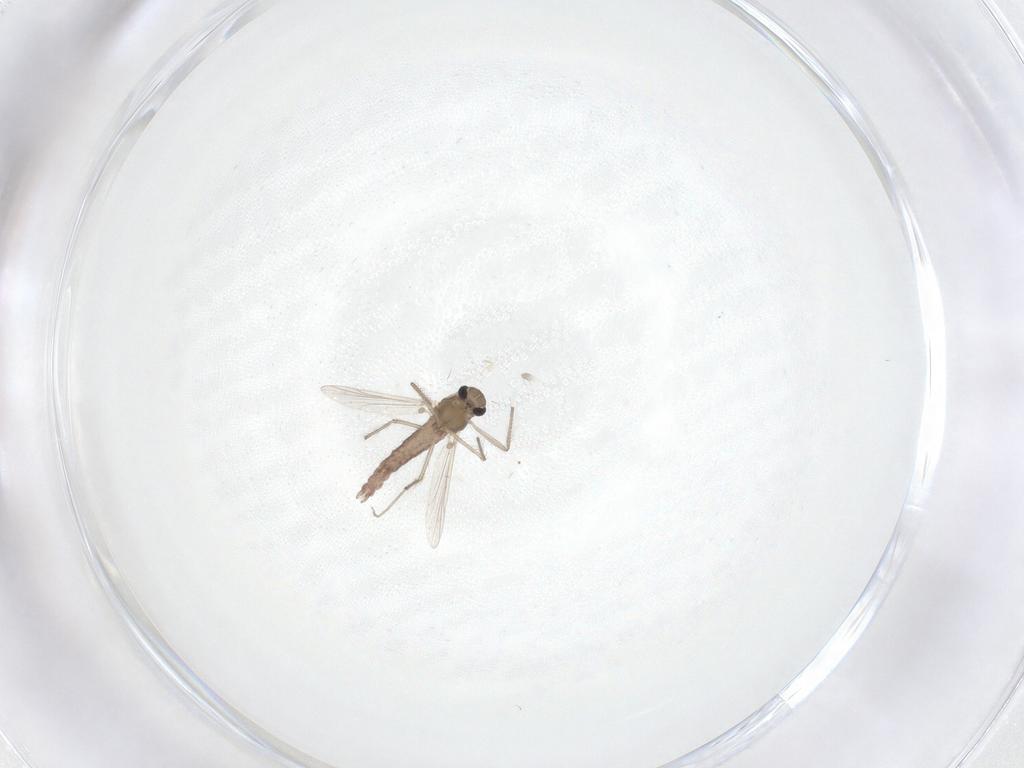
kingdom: Animalia
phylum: Arthropoda
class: Insecta
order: Diptera
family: Chironomidae
